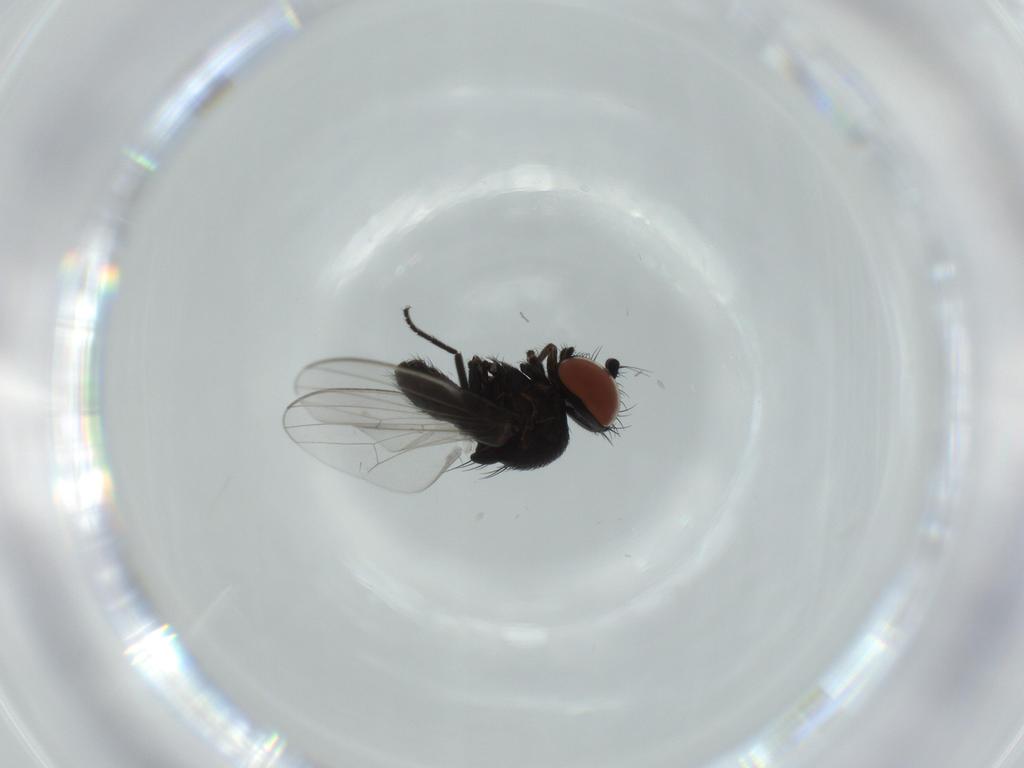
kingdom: Animalia
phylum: Arthropoda
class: Insecta
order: Diptera
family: Milichiidae
